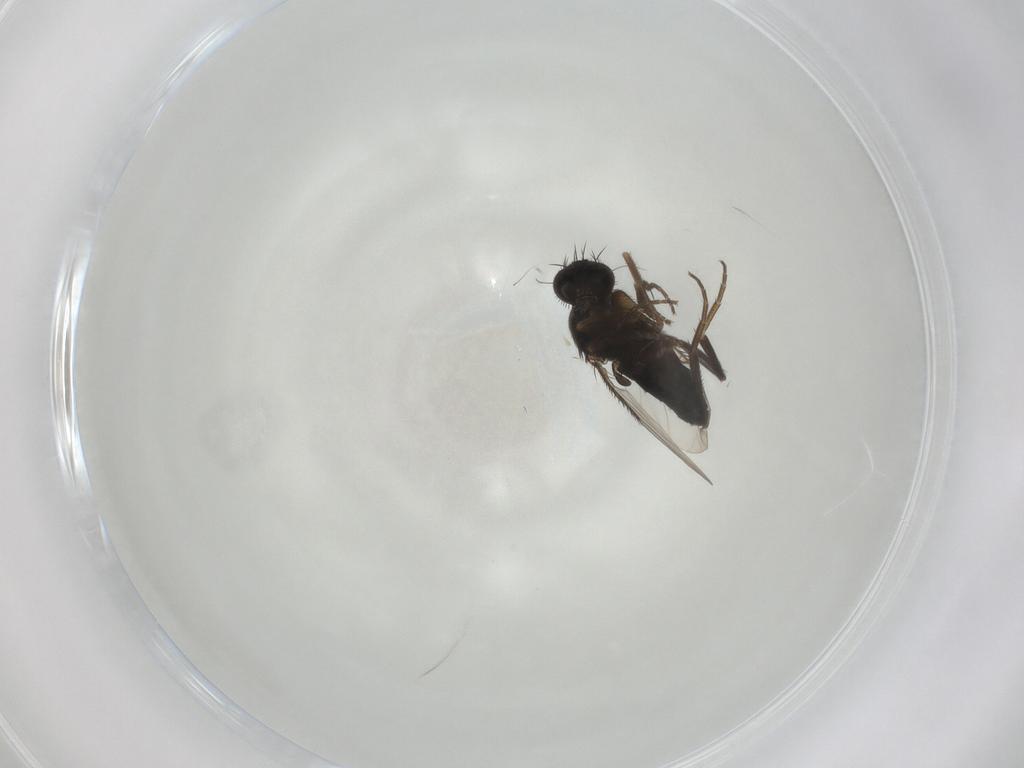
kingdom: Animalia
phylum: Arthropoda
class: Insecta
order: Diptera
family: Phoridae
